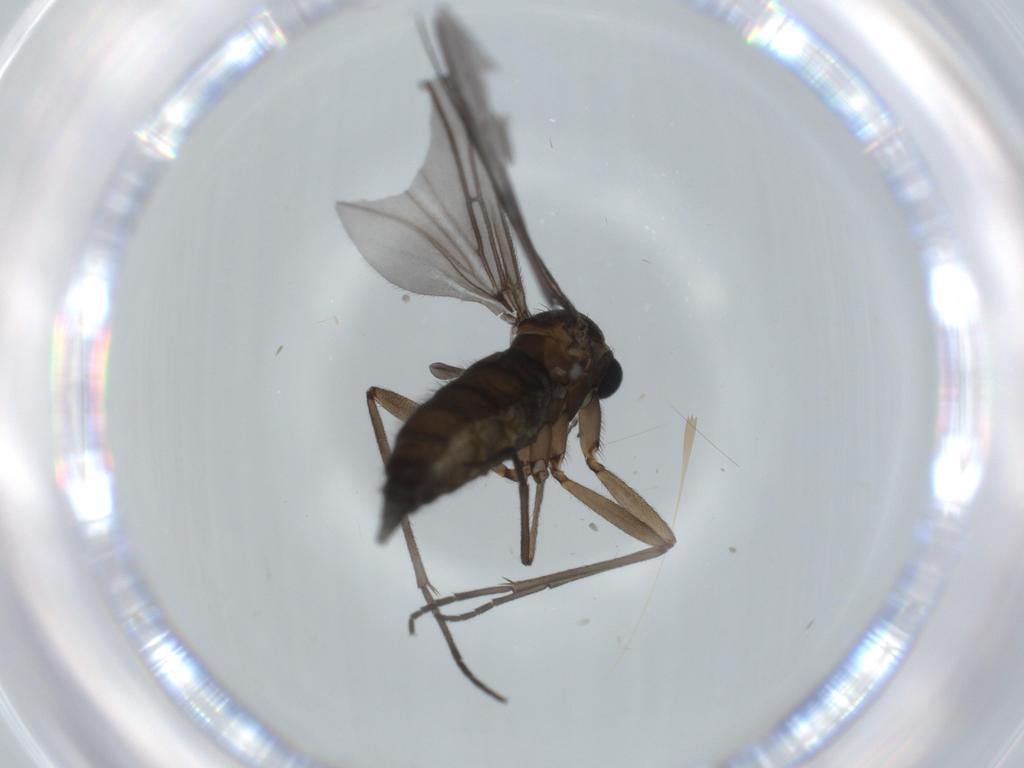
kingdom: Animalia
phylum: Arthropoda
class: Insecta
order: Diptera
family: Sciaridae
